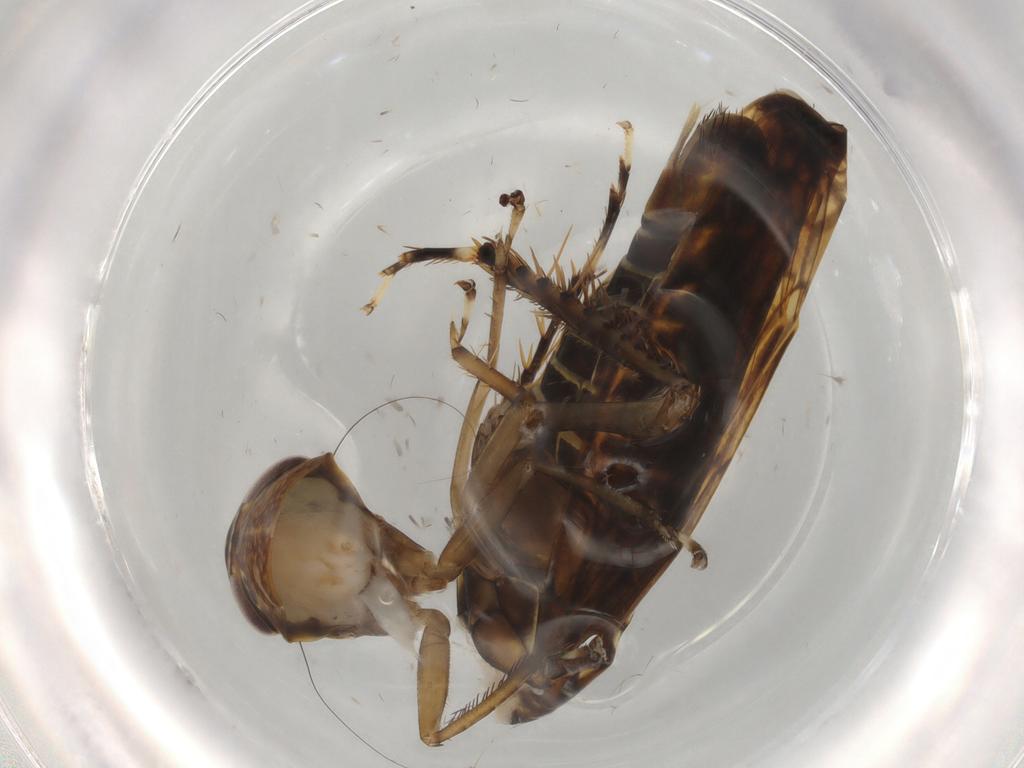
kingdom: Animalia
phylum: Arthropoda
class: Insecta
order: Hemiptera
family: Cicadellidae
